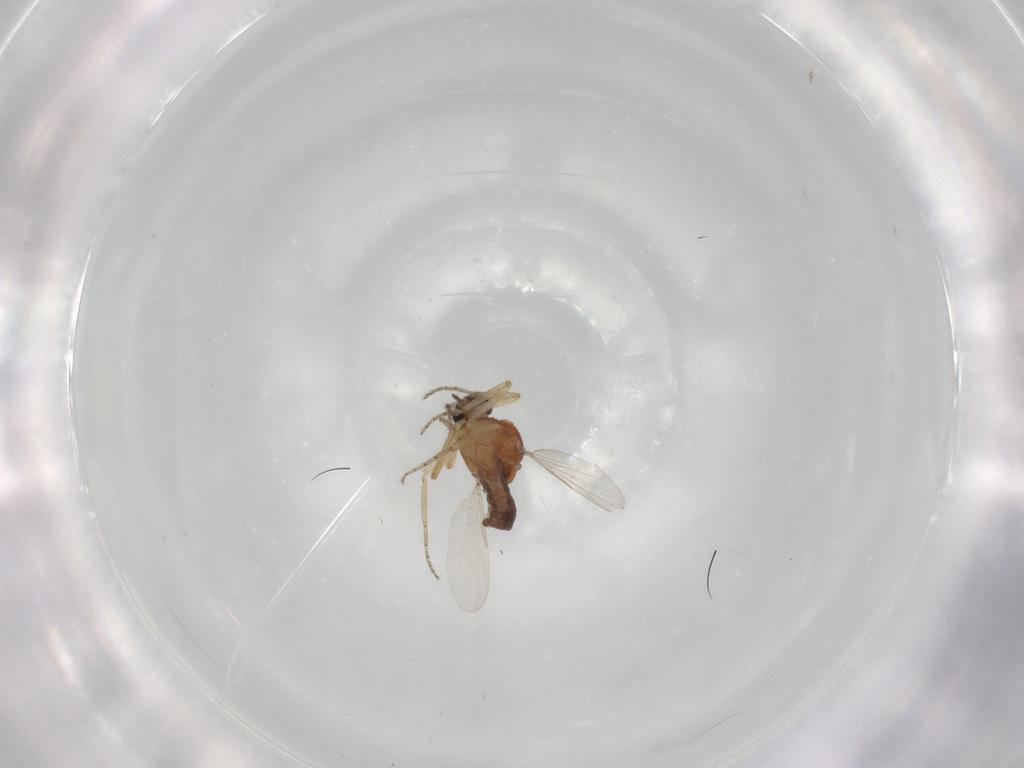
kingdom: Animalia
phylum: Arthropoda
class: Insecta
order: Diptera
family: Ceratopogonidae
